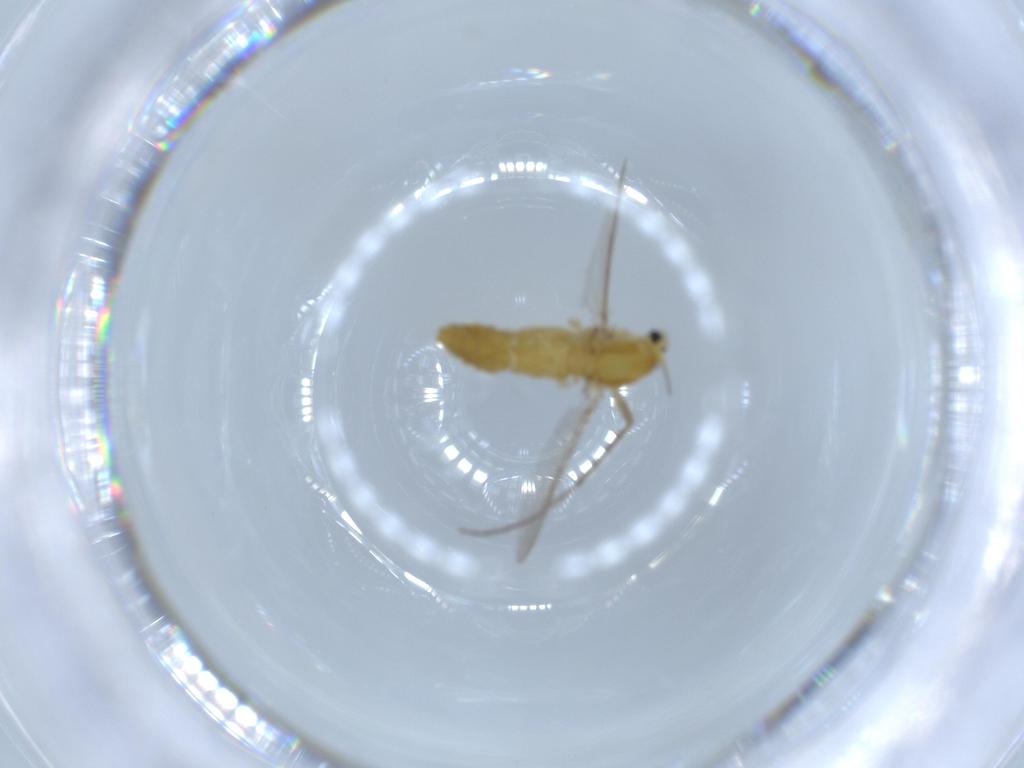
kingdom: Animalia
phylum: Arthropoda
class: Insecta
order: Diptera
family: Chironomidae
